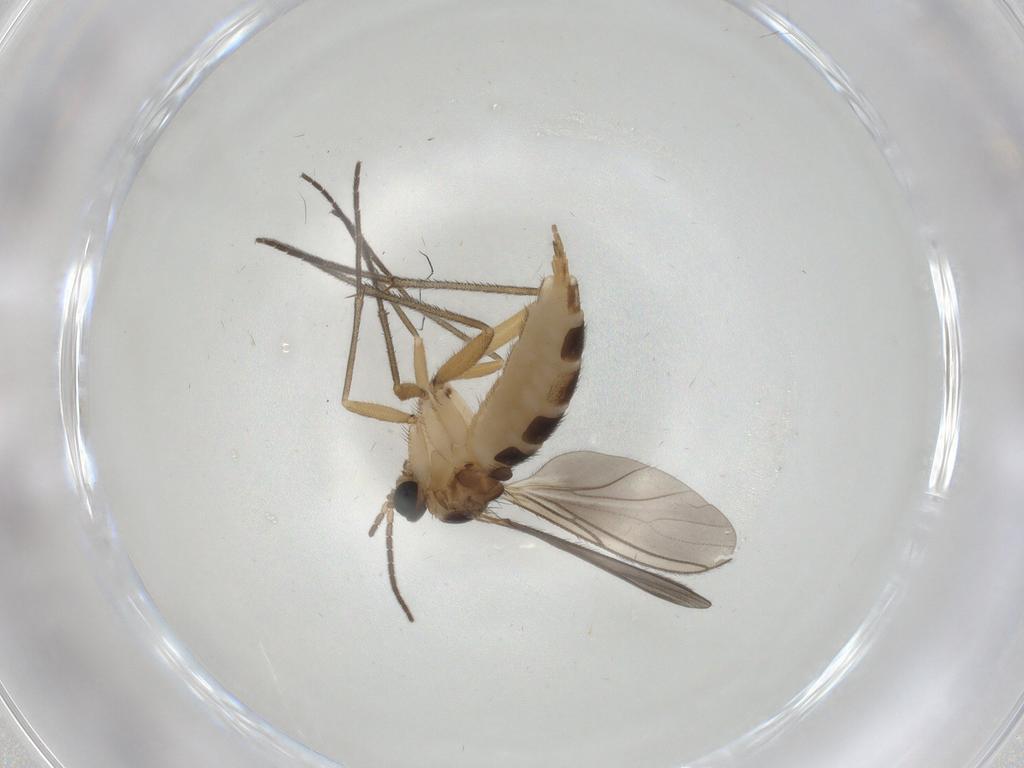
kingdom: Animalia
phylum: Arthropoda
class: Insecta
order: Diptera
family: Sciaridae
